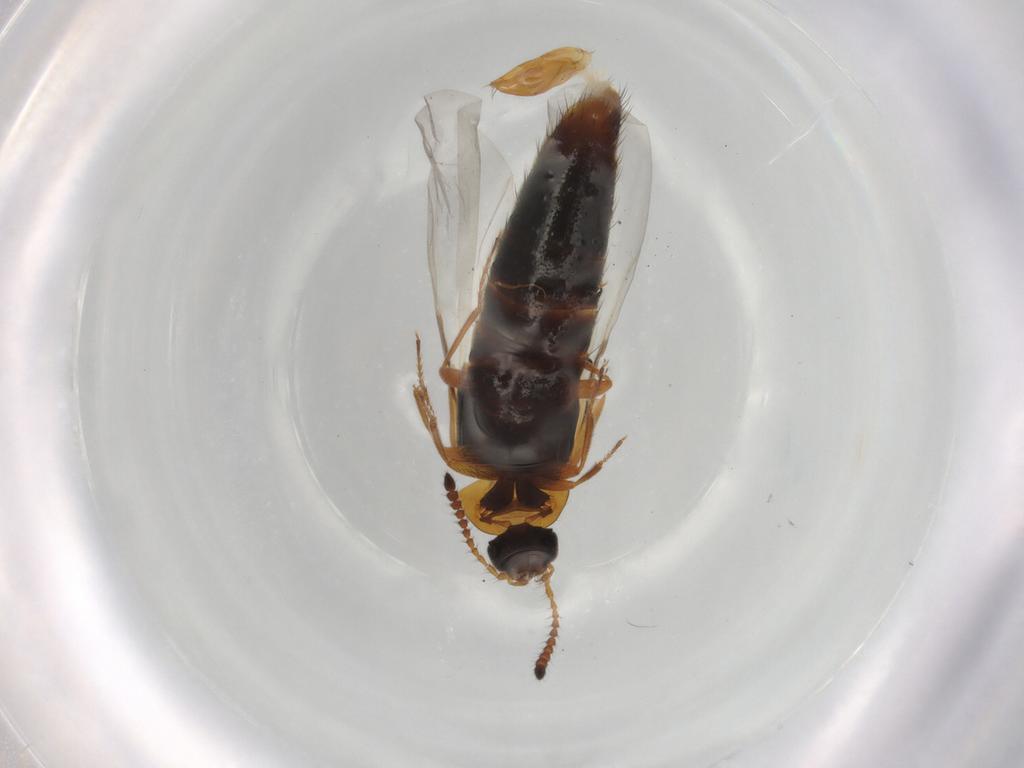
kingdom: Animalia
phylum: Arthropoda
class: Insecta
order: Coleoptera
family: Staphylinidae
